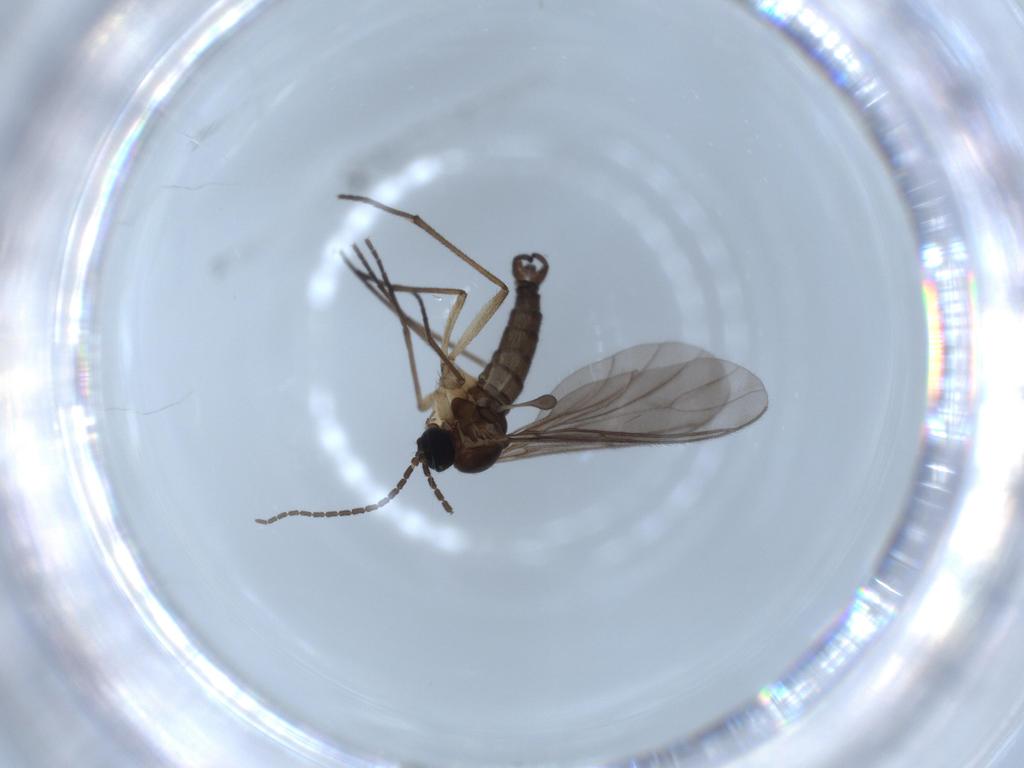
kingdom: Animalia
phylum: Arthropoda
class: Insecta
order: Diptera
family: Sciaridae
